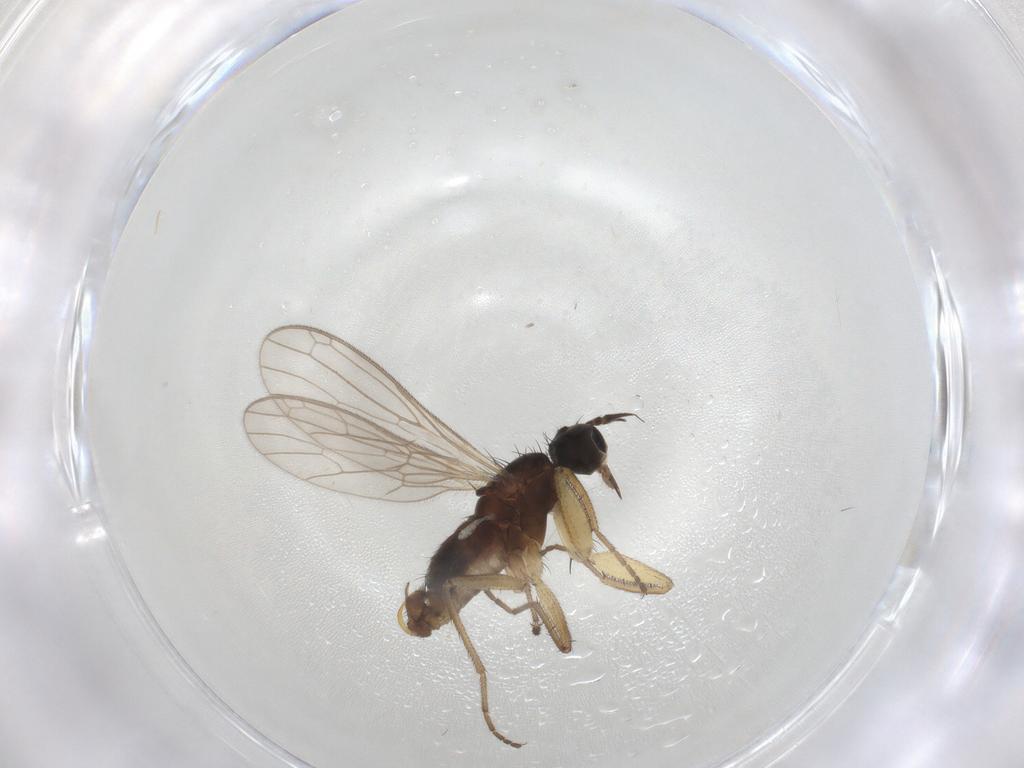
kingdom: Animalia
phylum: Arthropoda
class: Insecta
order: Diptera
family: Empididae
